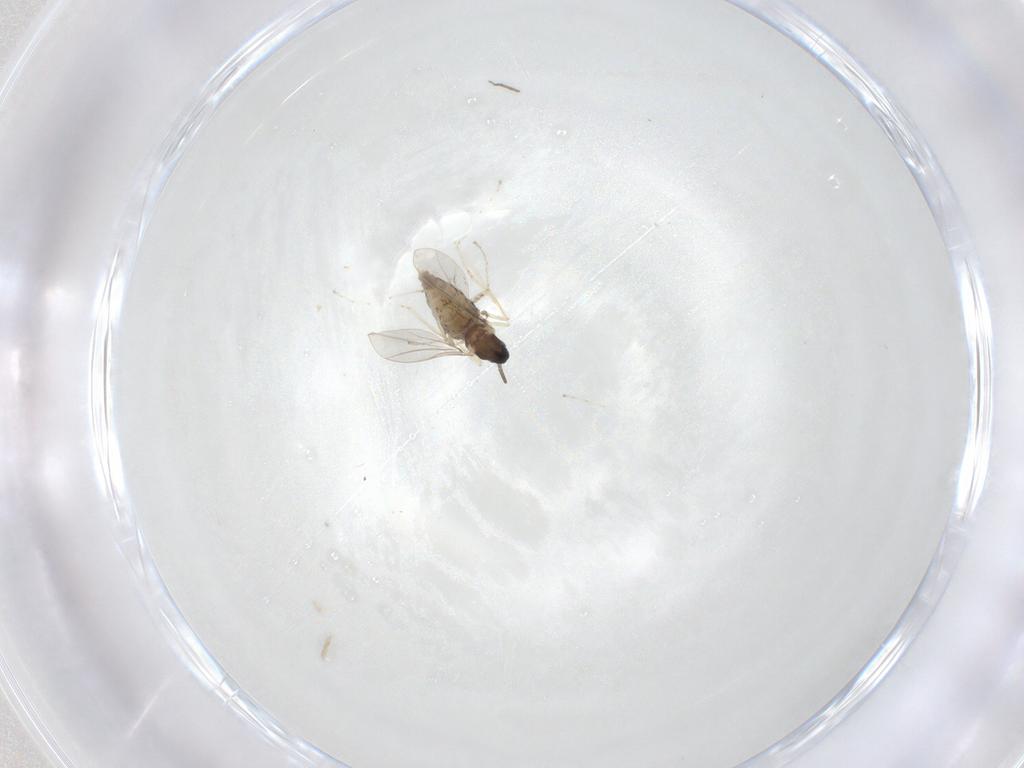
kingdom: Animalia
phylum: Arthropoda
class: Insecta
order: Diptera
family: Cecidomyiidae
